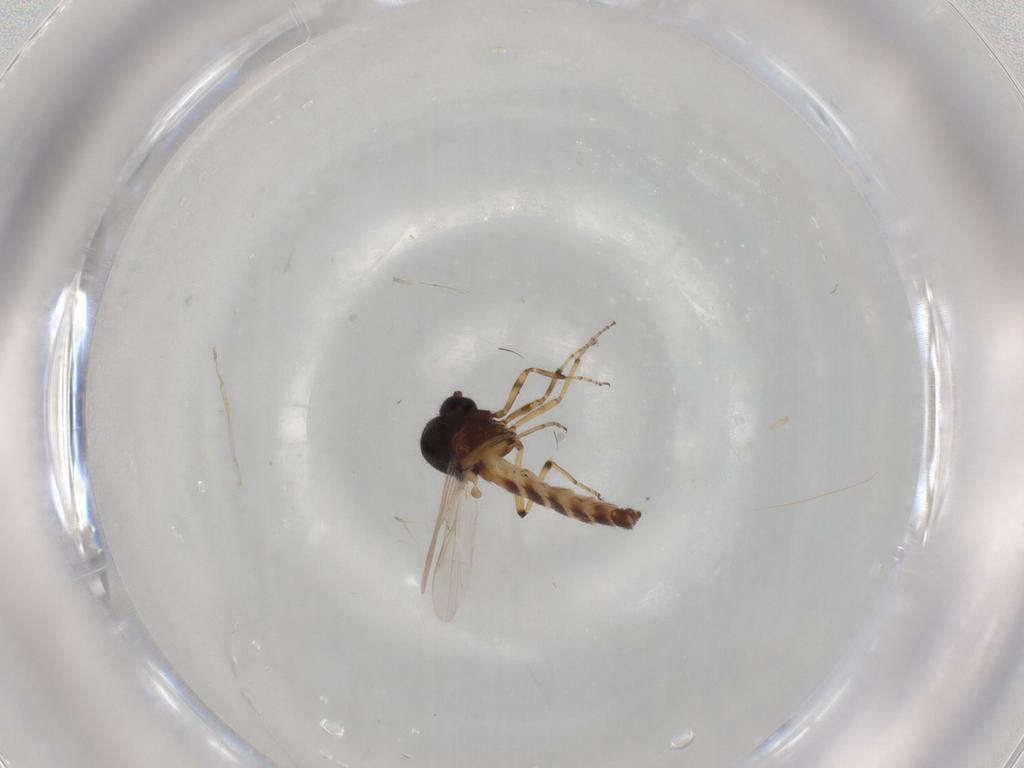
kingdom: Animalia
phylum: Arthropoda
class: Insecta
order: Diptera
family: Ceratopogonidae
